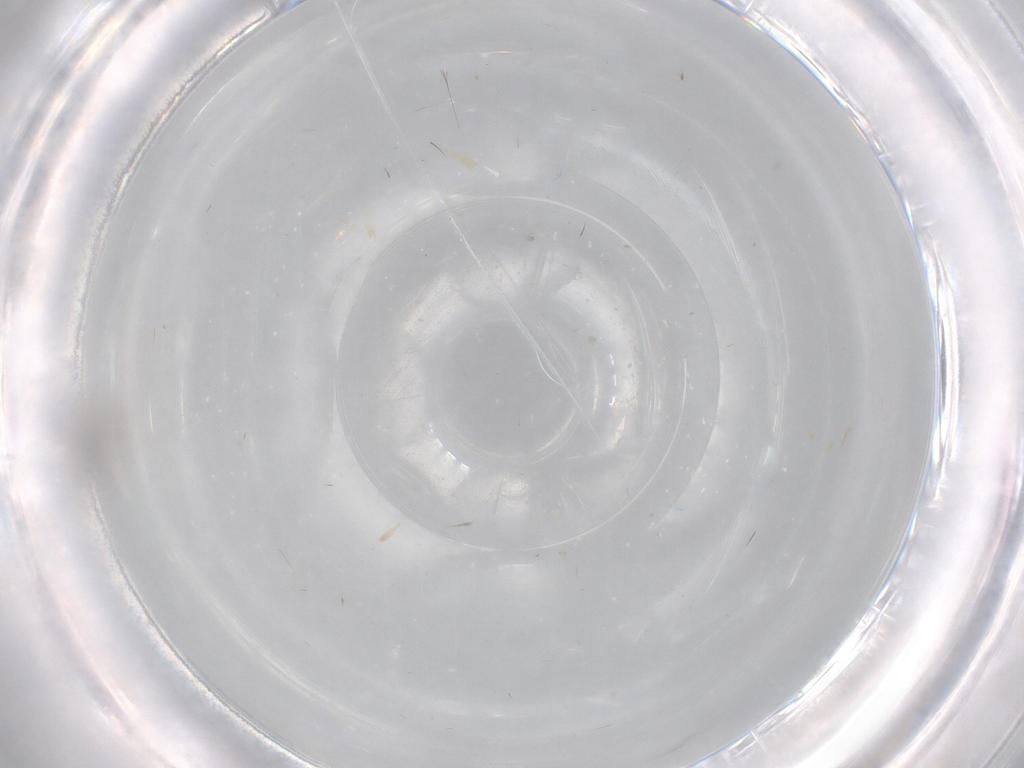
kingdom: Animalia
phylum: Arthropoda
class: Insecta
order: Hemiptera
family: Aleyrodidae
